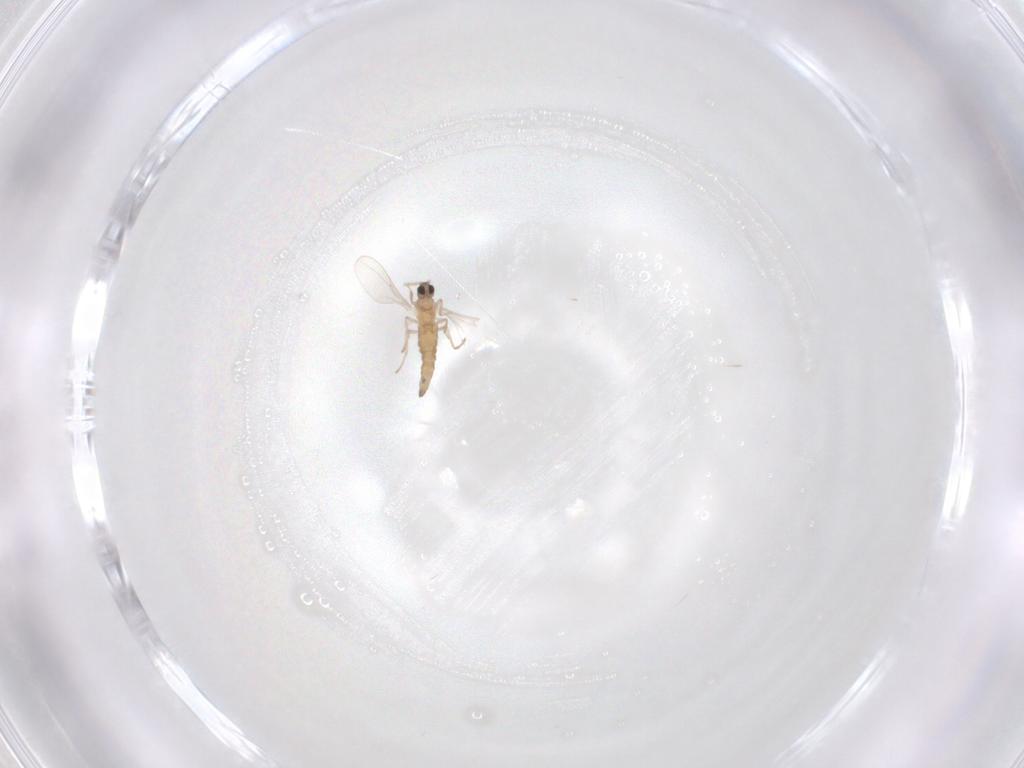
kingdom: Animalia
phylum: Arthropoda
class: Insecta
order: Diptera
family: Cecidomyiidae
